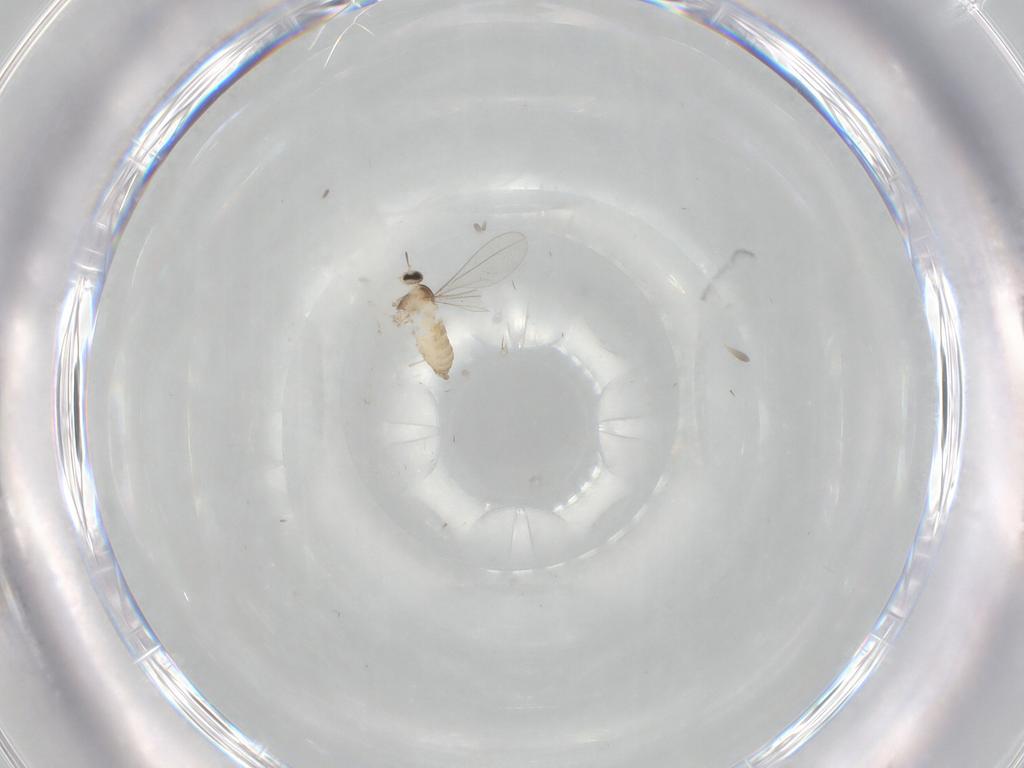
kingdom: Animalia
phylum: Arthropoda
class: Insecta
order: Diptera
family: Cecidomyiidae
